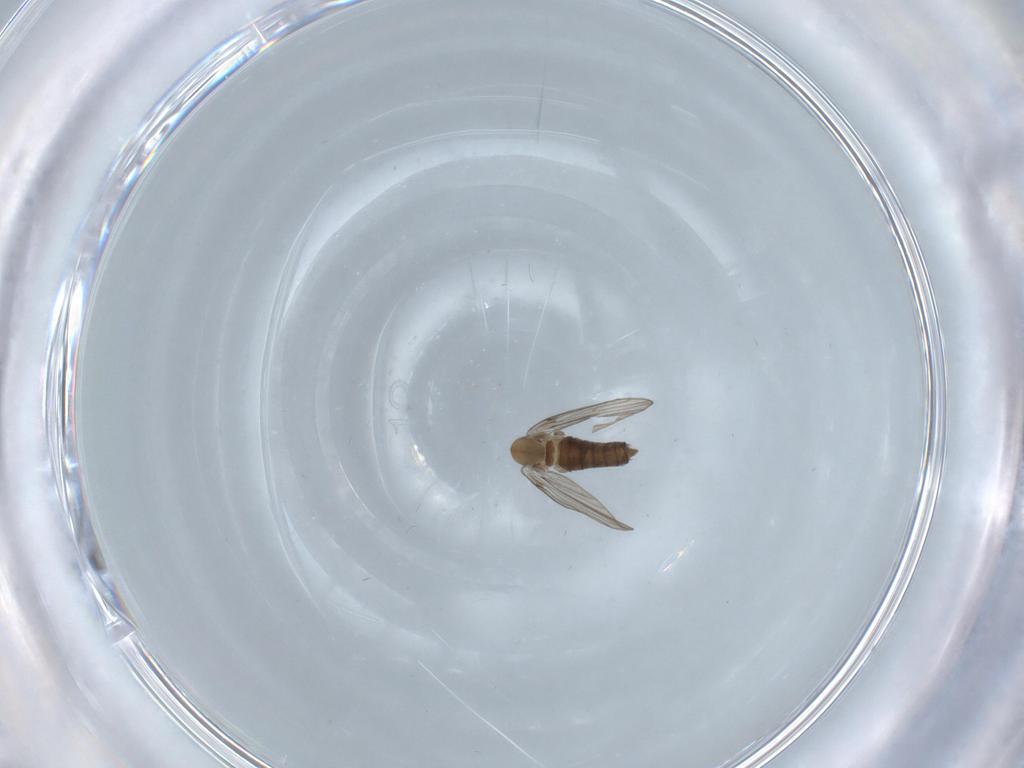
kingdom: Animalia
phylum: Arthropoda
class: Insecta
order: Diptera
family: Psychodidae
